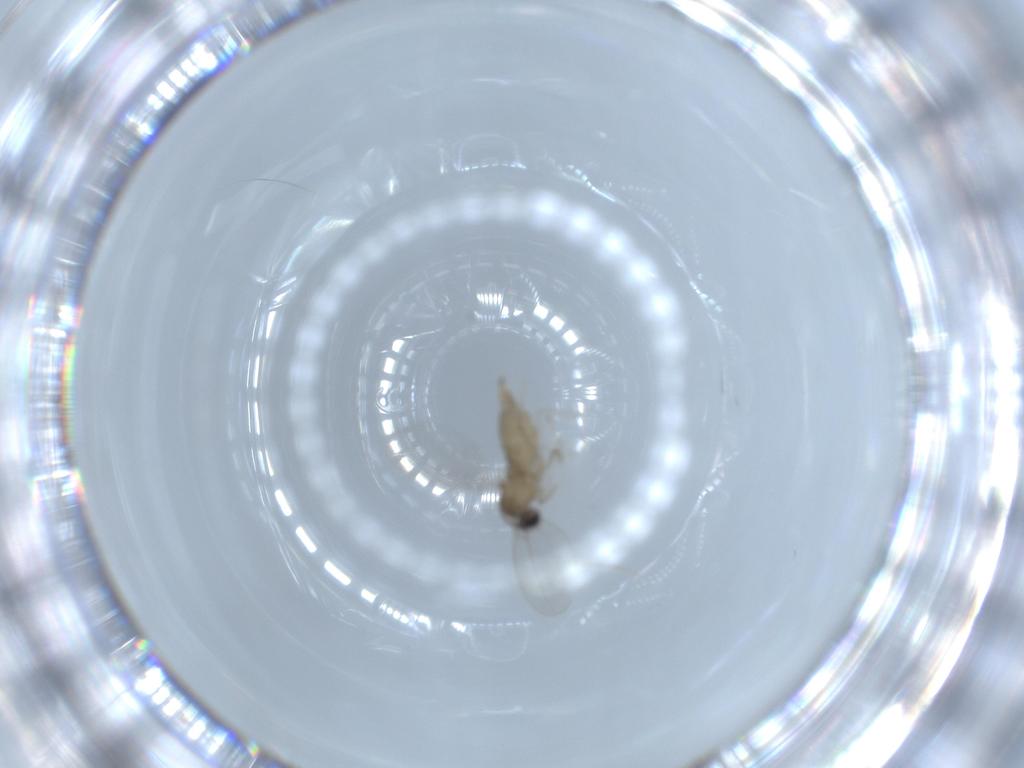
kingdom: Animalia
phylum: Arthropoda
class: Insecta
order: Diptera
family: Cecidomyiidae
